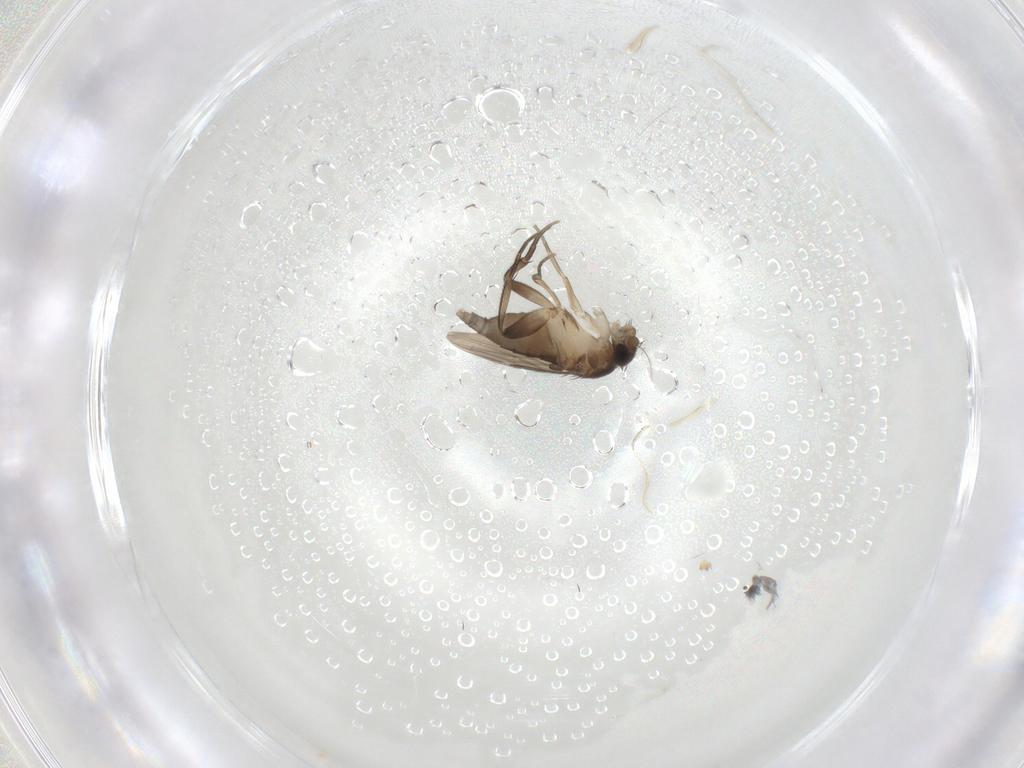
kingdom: Animalia
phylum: Arthropoda
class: Insecta
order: Diptera
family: Phoridae
